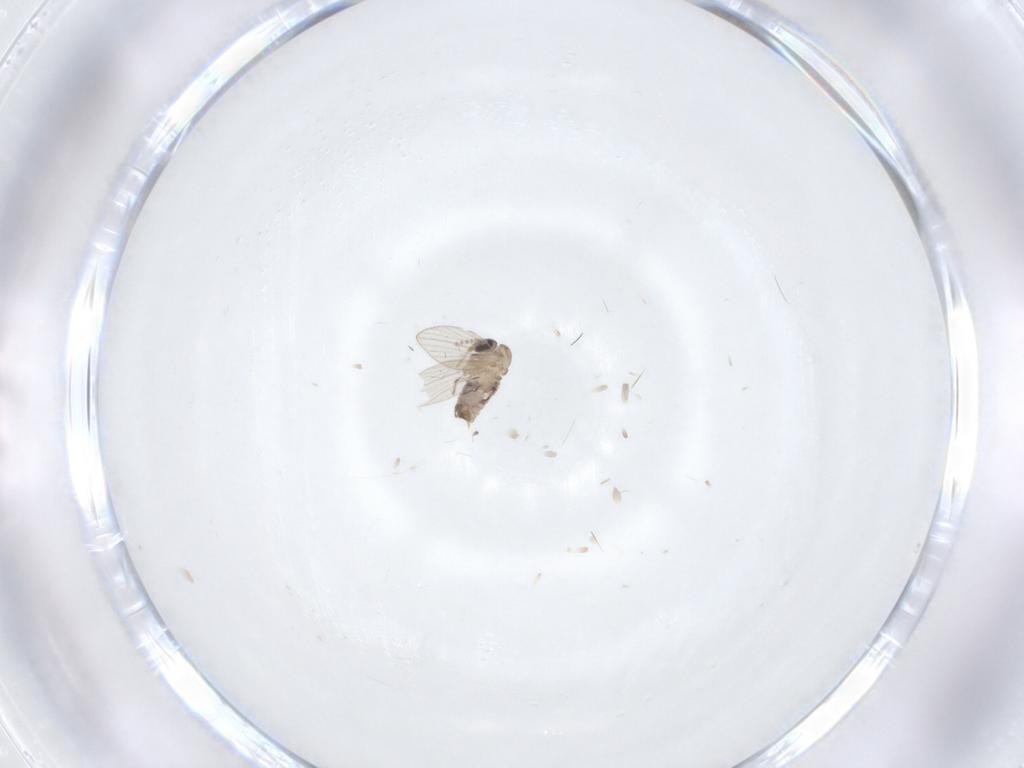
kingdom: Animalia
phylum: Arthropoda
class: Insecta
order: Diptera
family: Psychodidae
